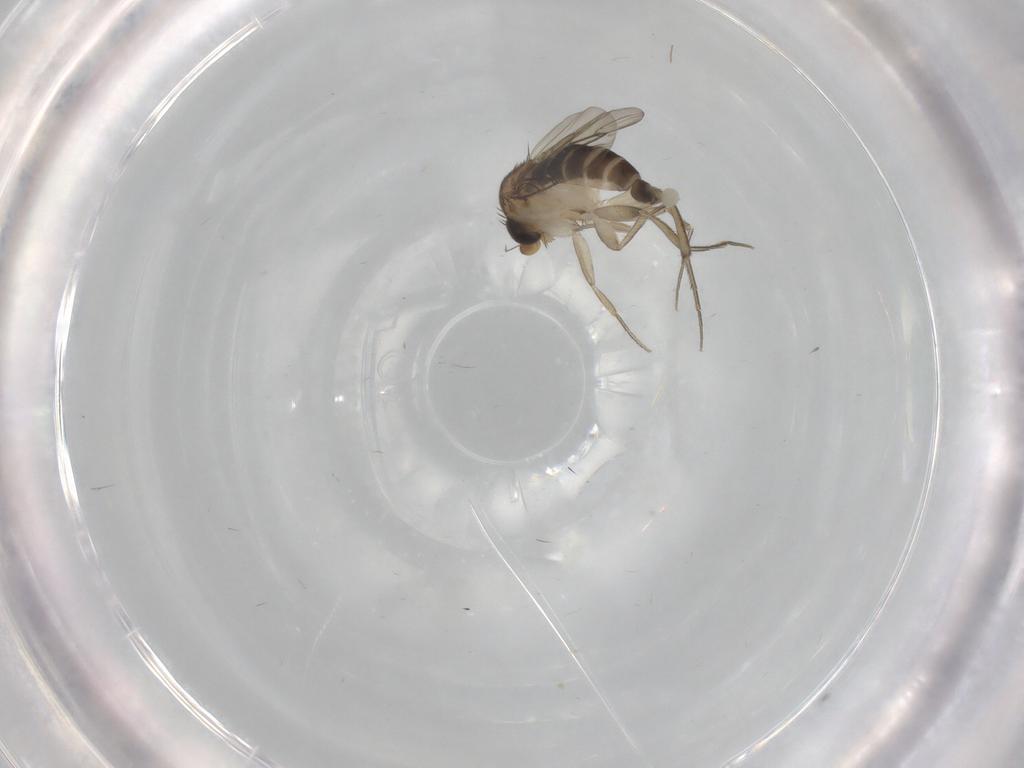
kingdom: Animalia
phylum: Arthropoda
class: Insecta
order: Diptera
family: Phoridae
